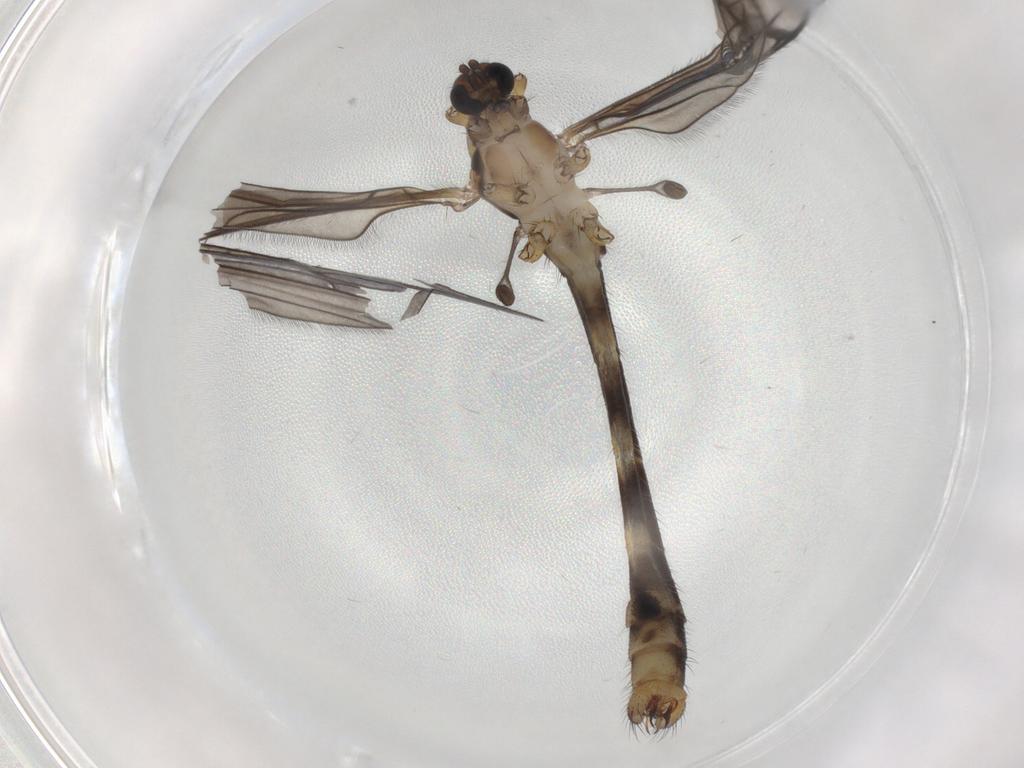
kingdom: Animalia
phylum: Arthropoda
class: Insecta
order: Diptera
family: Limoniidae
